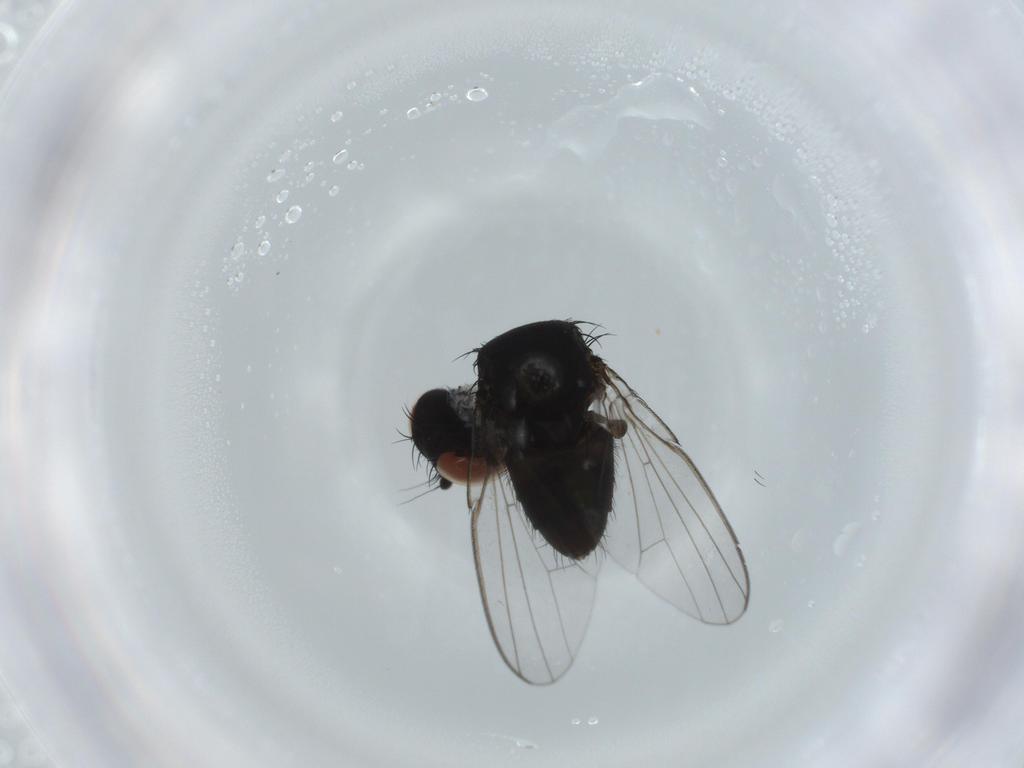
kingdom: Animalia
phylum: Arthropoda
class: Insecta
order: Diptera
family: Milichiidae
